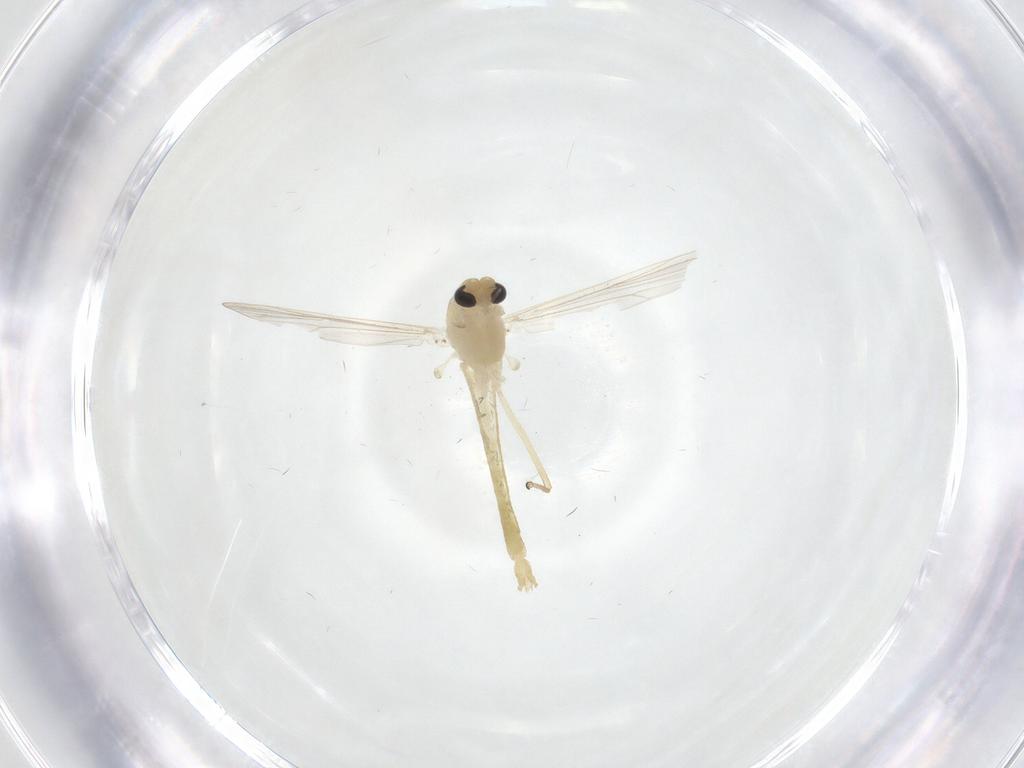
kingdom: Animalia
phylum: Arthropoda
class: Insecta
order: Diptera
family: Chironomidae
